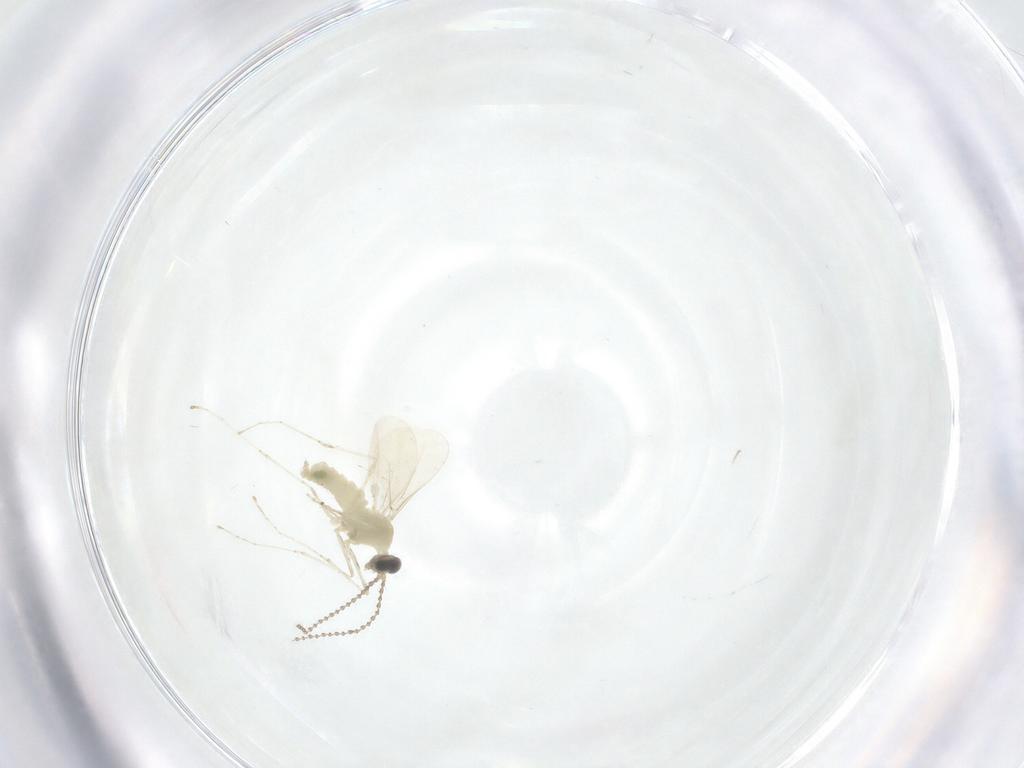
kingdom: Animalia
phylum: Arthropoda
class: Insecta
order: Diptera
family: Cecidomyiidae
